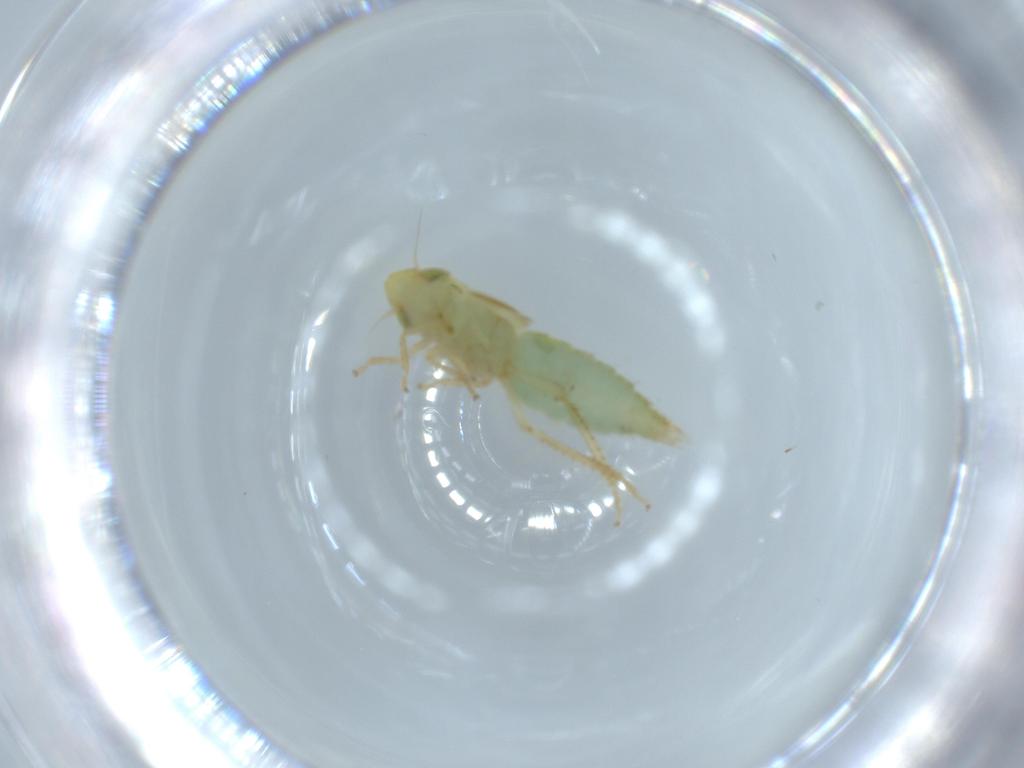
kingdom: Animalia
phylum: Arthropoda
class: Insecta
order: Hemiptera
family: Cicadellidae
